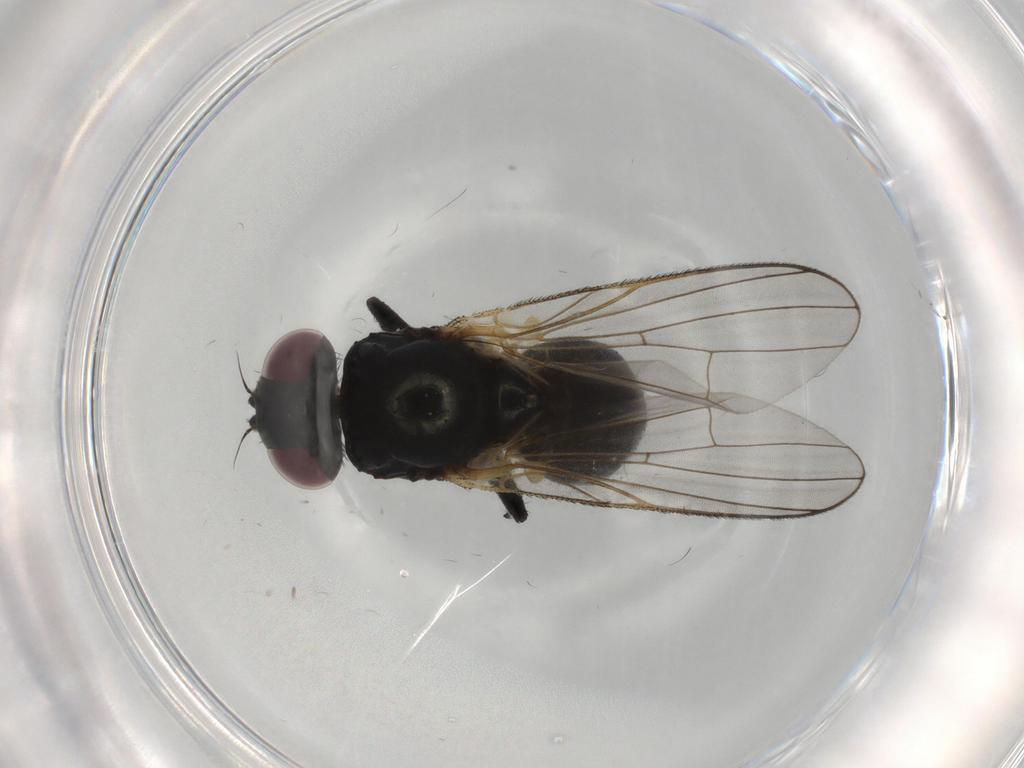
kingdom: Animalia
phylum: Arthropoda
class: Insecta
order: Diptera
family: Fannia
